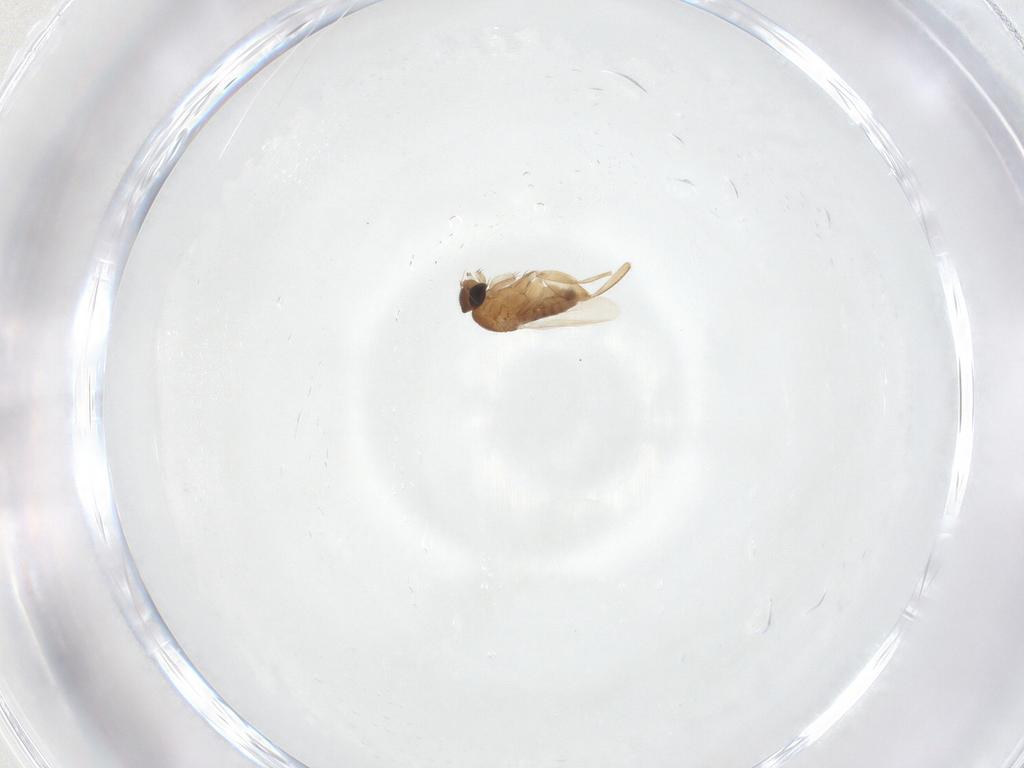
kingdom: Animalia
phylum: Arthropoda
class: Insecta
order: Diptera
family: Phoridae
